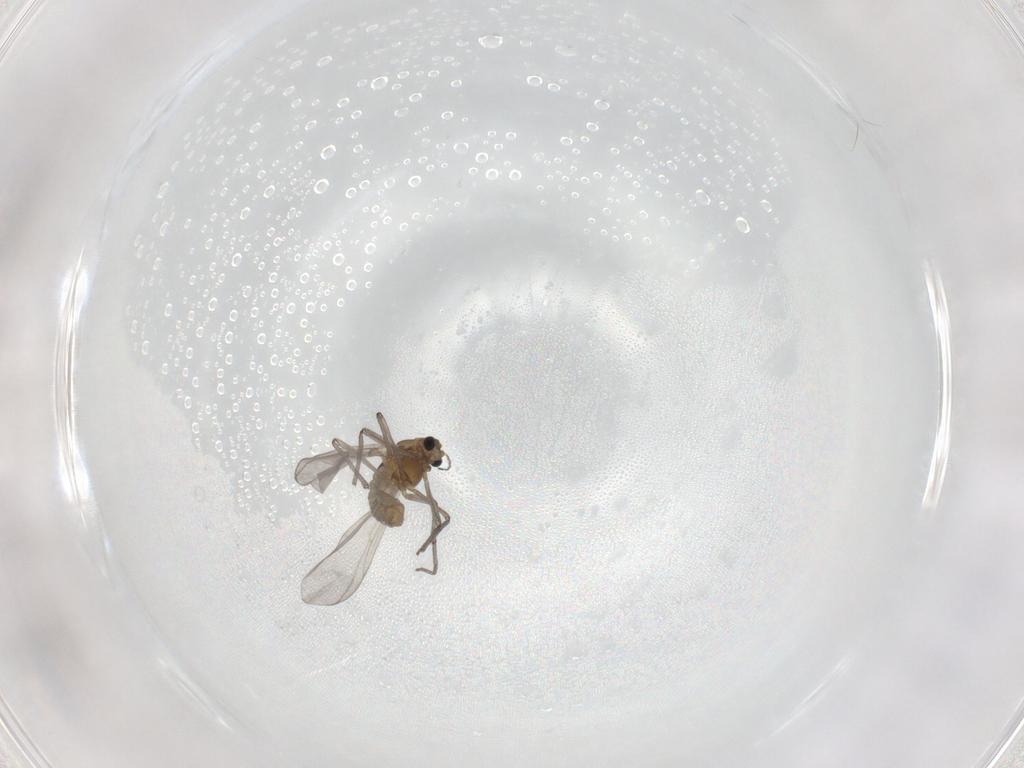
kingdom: Animalia
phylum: Arthropoda
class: Insecta
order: Diptera
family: Chironomidae
